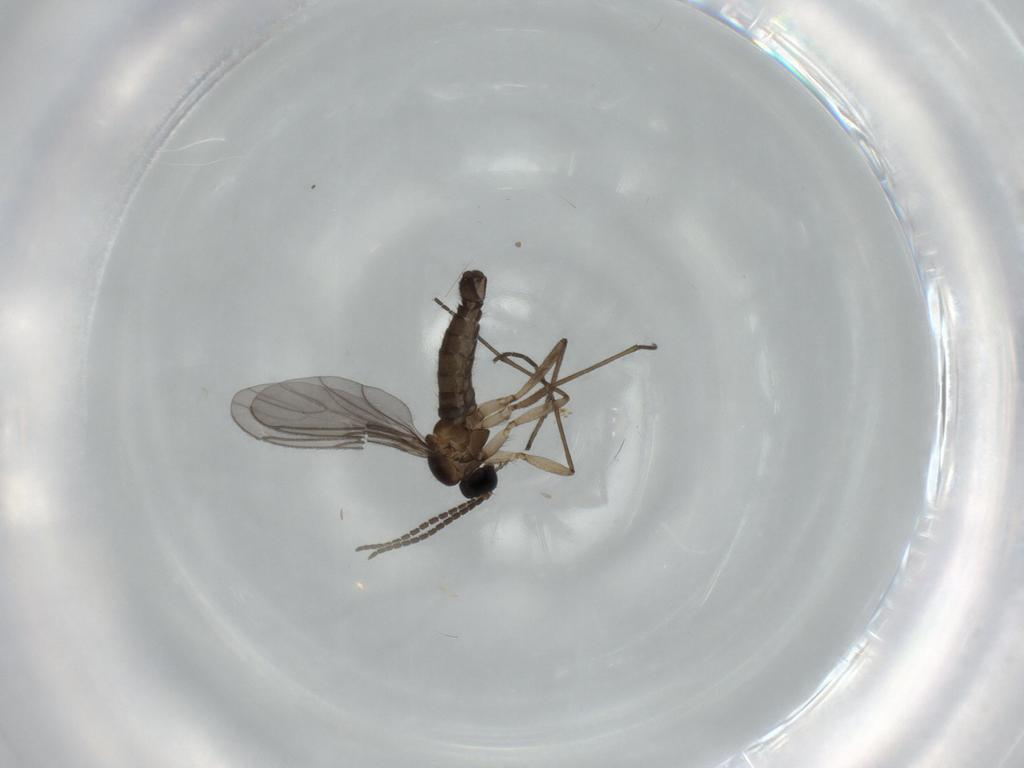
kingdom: Animalia
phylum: Arthropoda
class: Insecta
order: Diptera
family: Sciaridae
